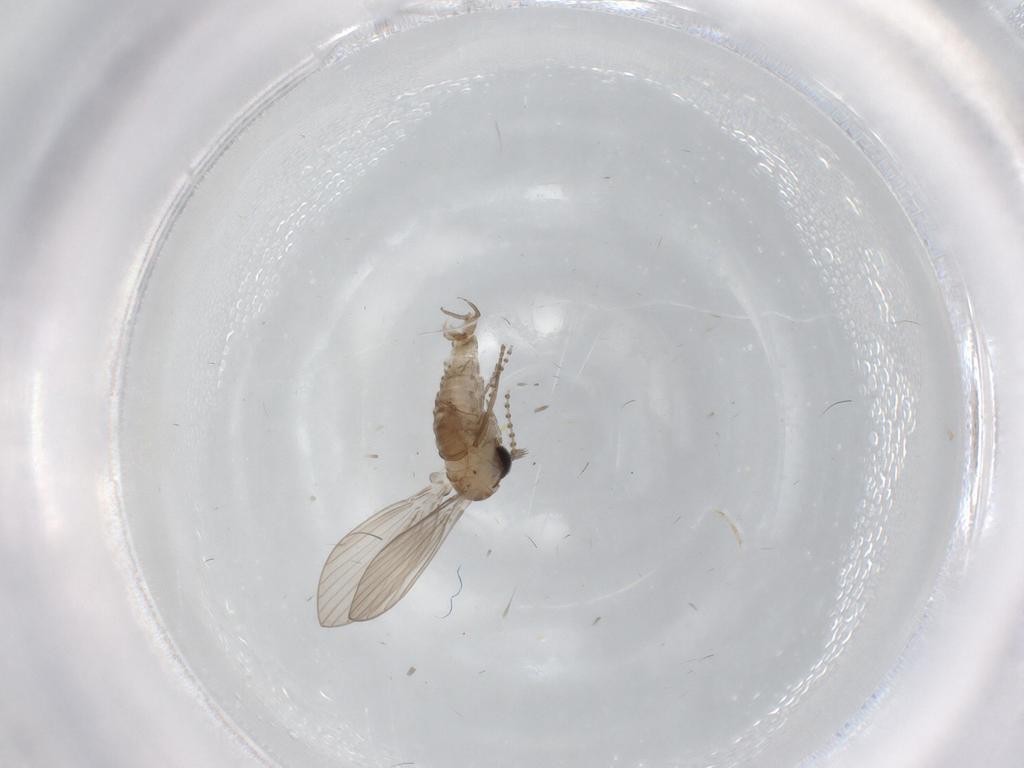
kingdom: Animalia
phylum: Arthropoda
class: Insecta
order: Diptera
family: Psychodidae
